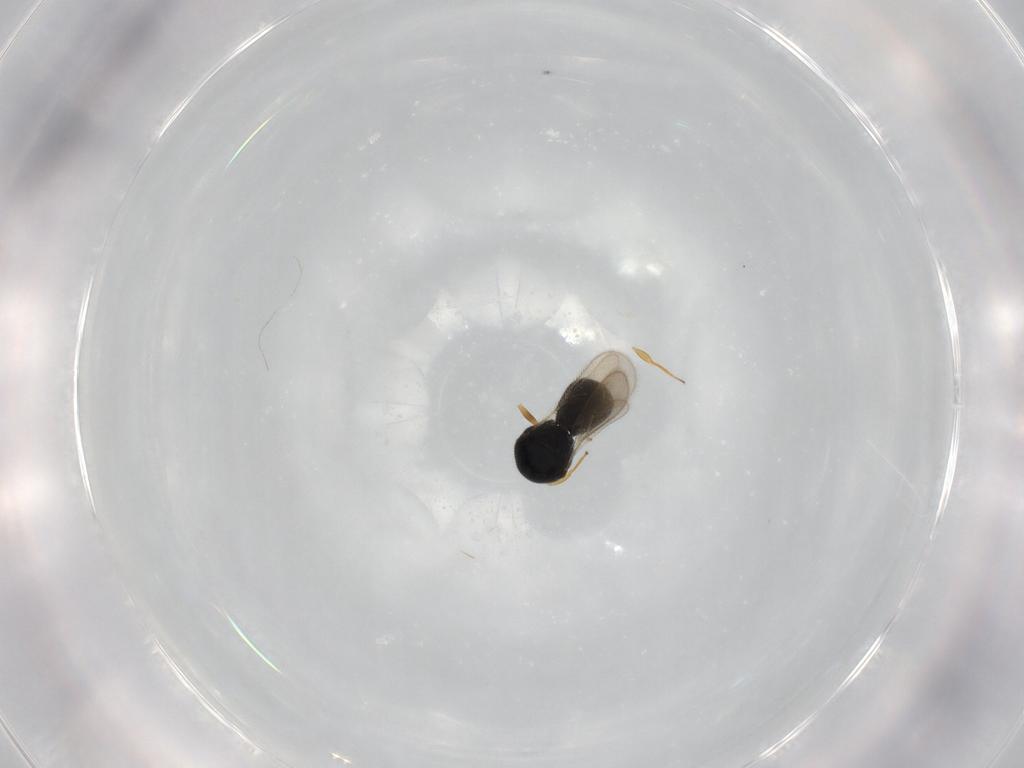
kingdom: Animalia
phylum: Arthropoda
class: Insecta
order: Hymenoptera
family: Scelionidae
